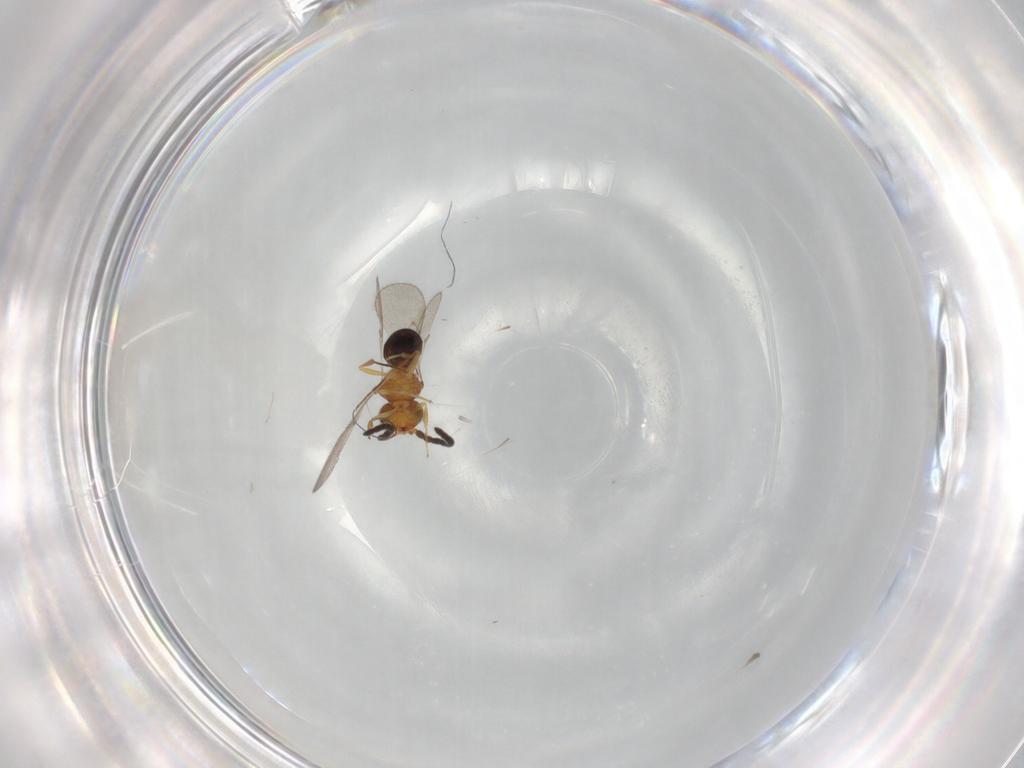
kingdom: Animalia
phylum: Arthropoda
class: Insecta
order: Hymenoptera
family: Scelionidae
